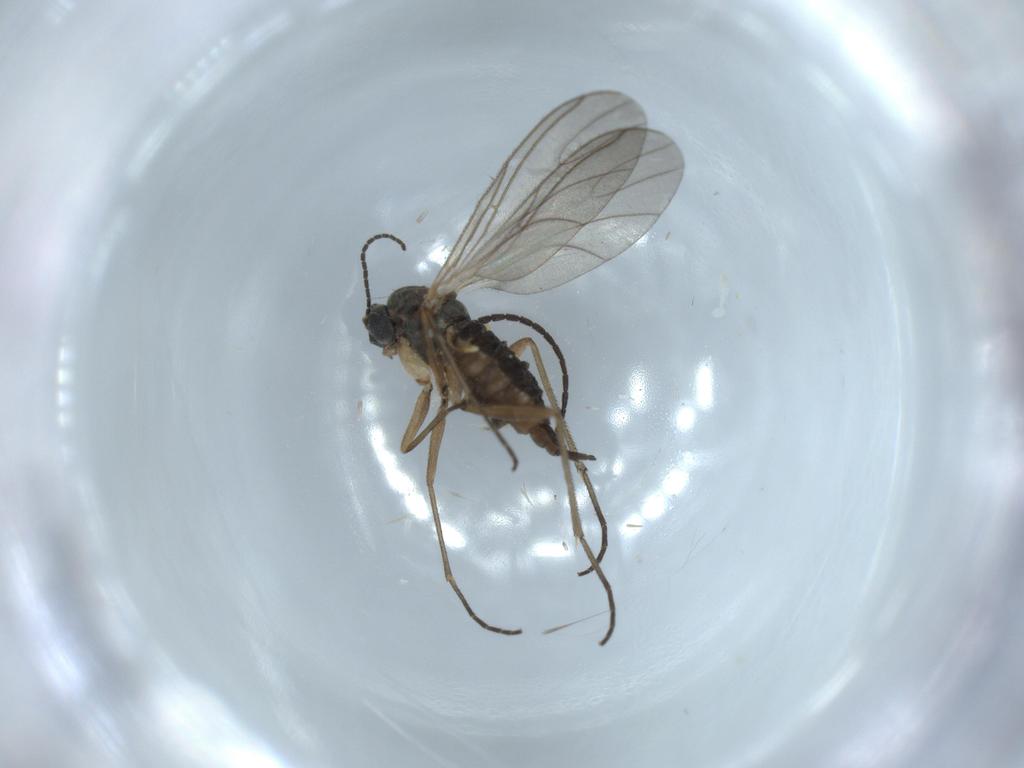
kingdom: Animalia
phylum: Arthropoda
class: Insecta
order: Diptera
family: Sciaridae
